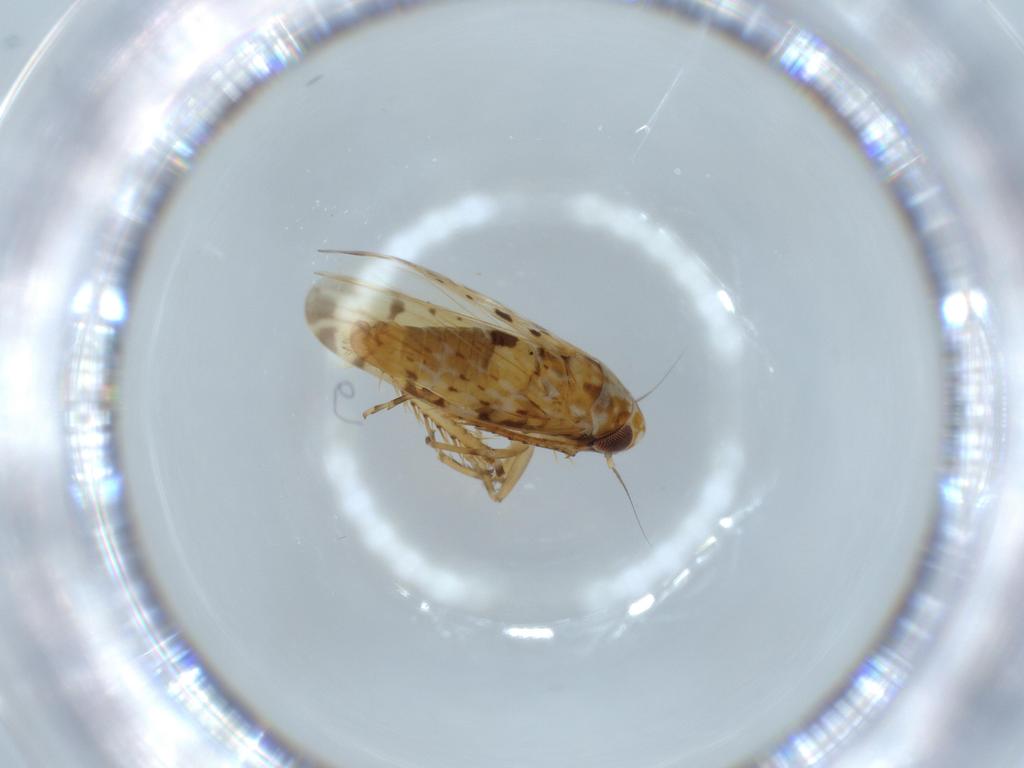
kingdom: Animalia
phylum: Arthropoda
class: Insecta
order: Hemiptera
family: Cicadellidae
